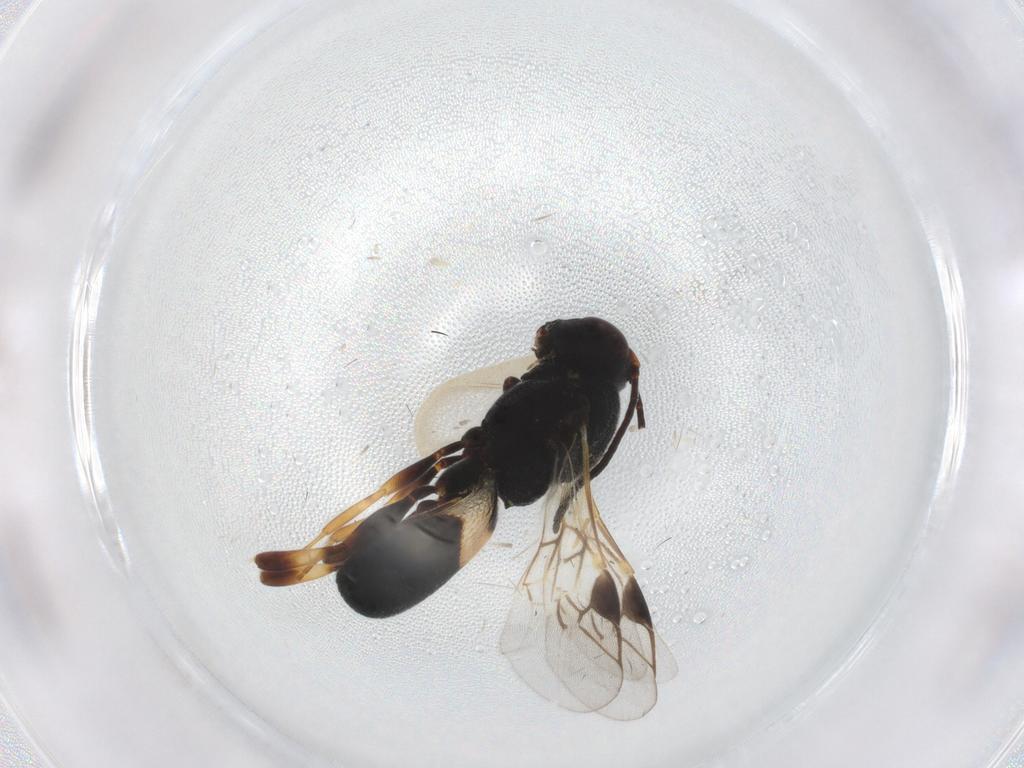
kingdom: Animalia
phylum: Arthropoda
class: Insecta
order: Hymenoptera
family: Braconidae
